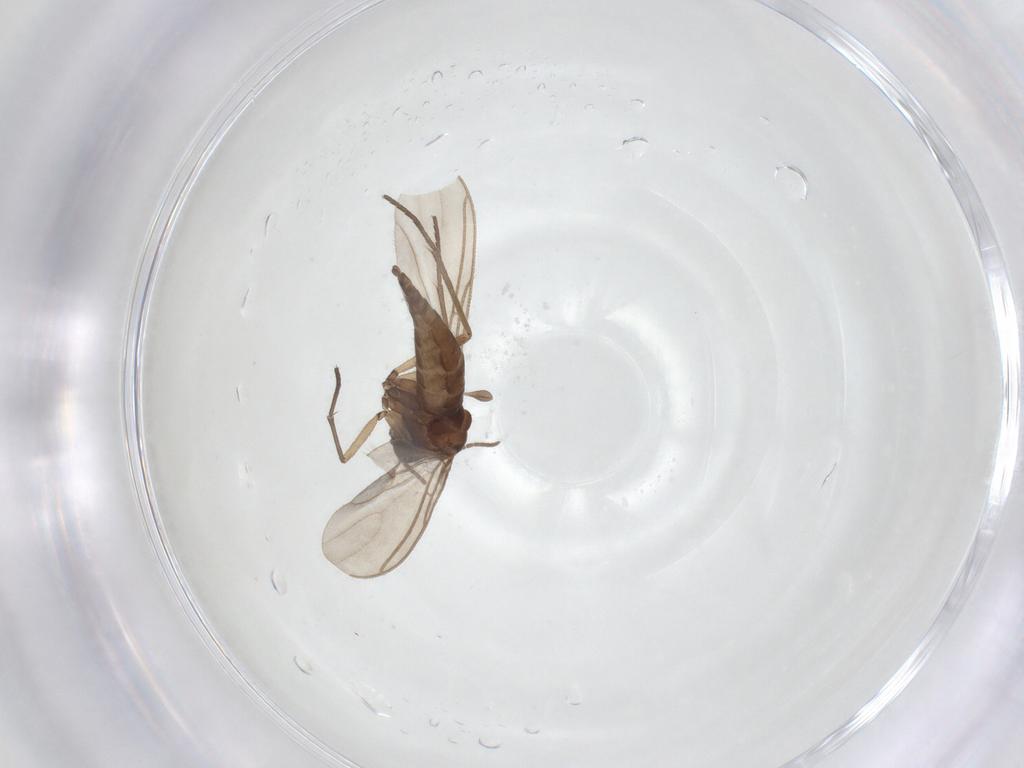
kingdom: Animalia
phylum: Arthropoda
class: Insecta
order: Diptera
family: Sciaridae
